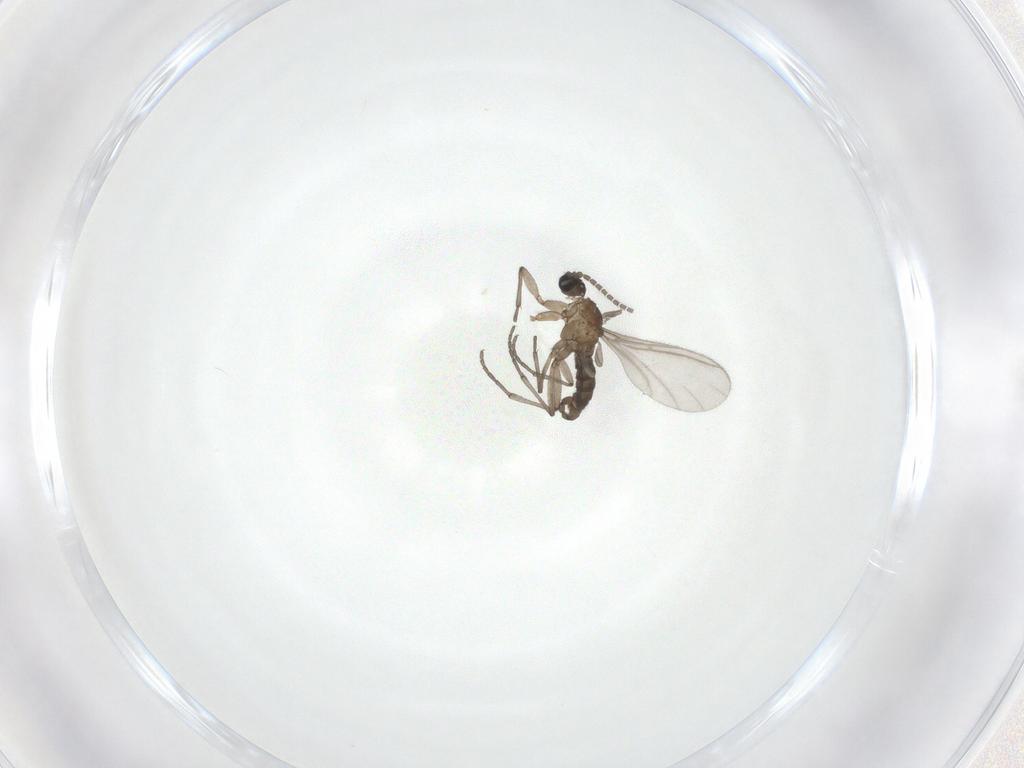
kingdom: Animalia
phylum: Arthropoda
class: Insecta
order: Diptera
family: Sciaridae
